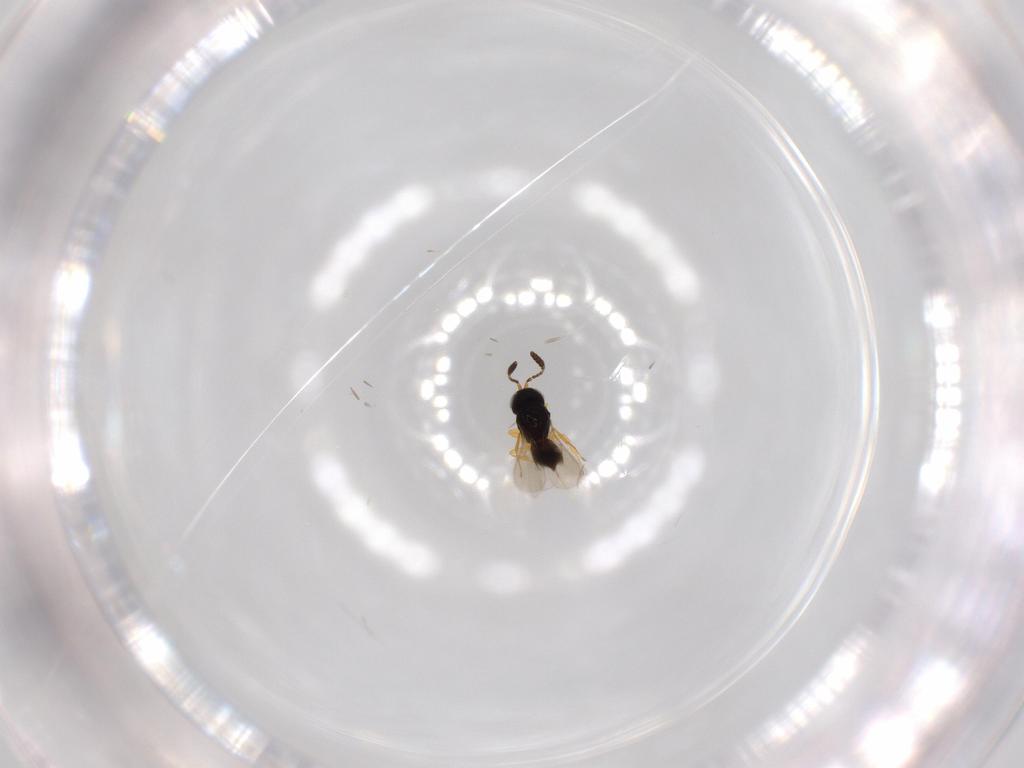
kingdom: Animalia
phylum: Arthropoda
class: Insecta
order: Hymenoptera
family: Scelionidae
